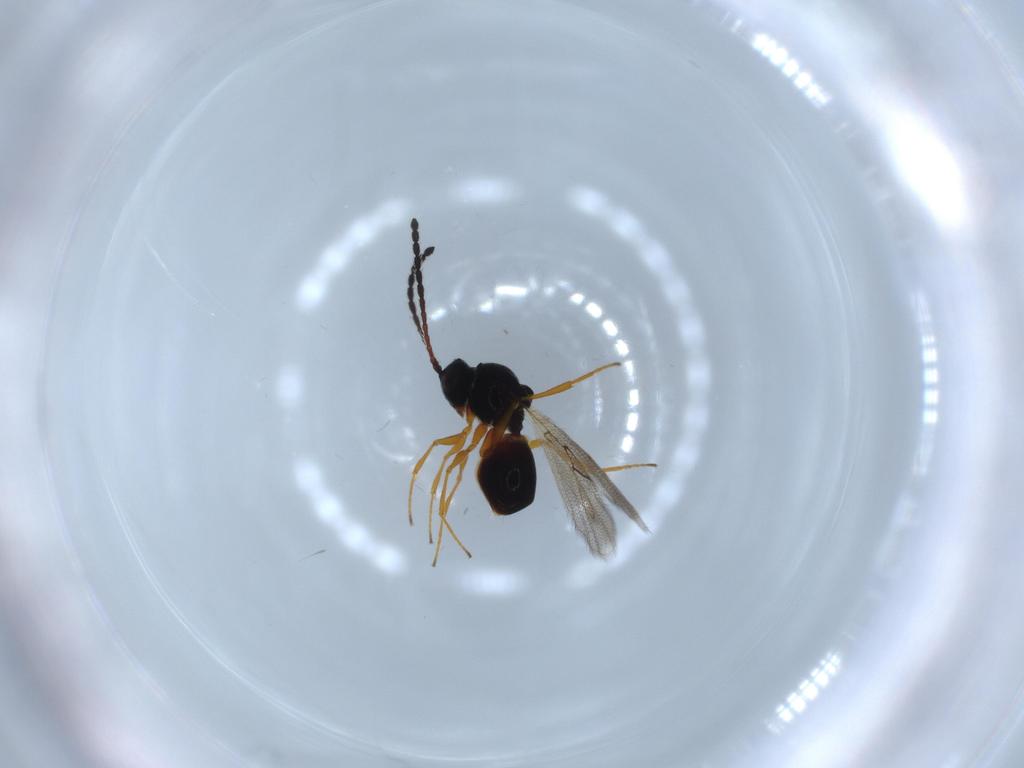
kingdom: Animalia
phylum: Arthropoda
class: Insecta
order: Hymenoptera
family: Figitidae
